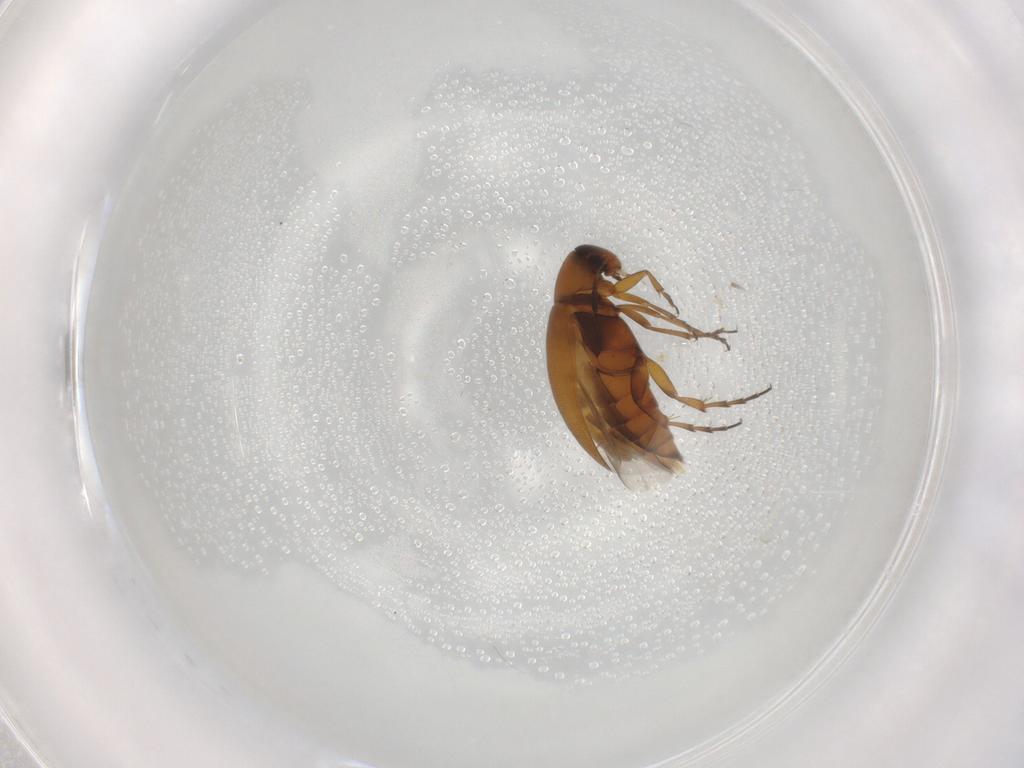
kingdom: Animalia
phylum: Arthropoda
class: Insecta
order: Coleoptera
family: Scraptiidae
